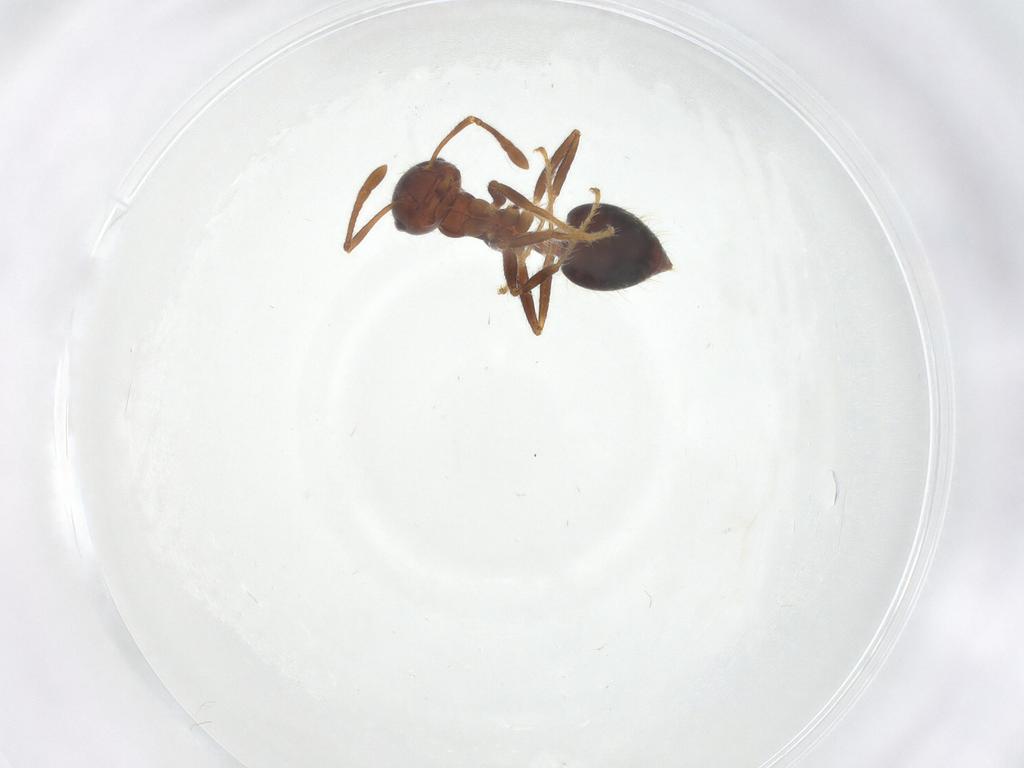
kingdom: Animalia
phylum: Arthropoda
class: Insecta
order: Hymenoptera
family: Formicidae
